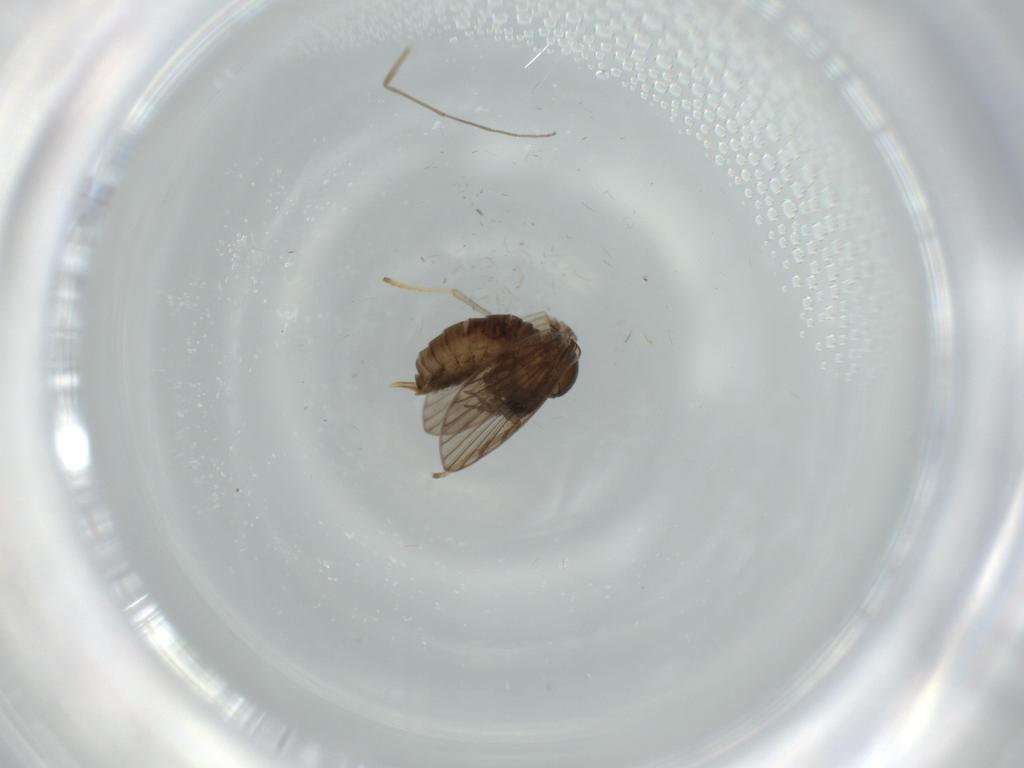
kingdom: Animalia
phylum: Arthropoda
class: Insecta
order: Diptera
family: Psychodidae
